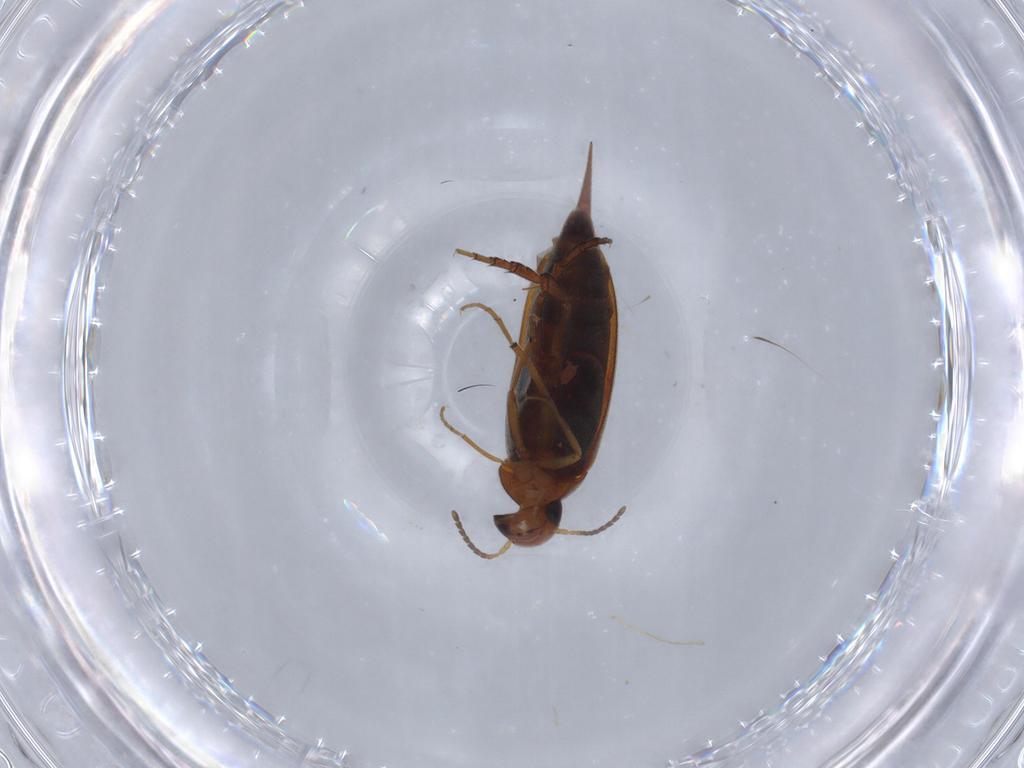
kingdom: Animalia
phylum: Arthropoda
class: Insecta
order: Coleoptera
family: Mordellidae
